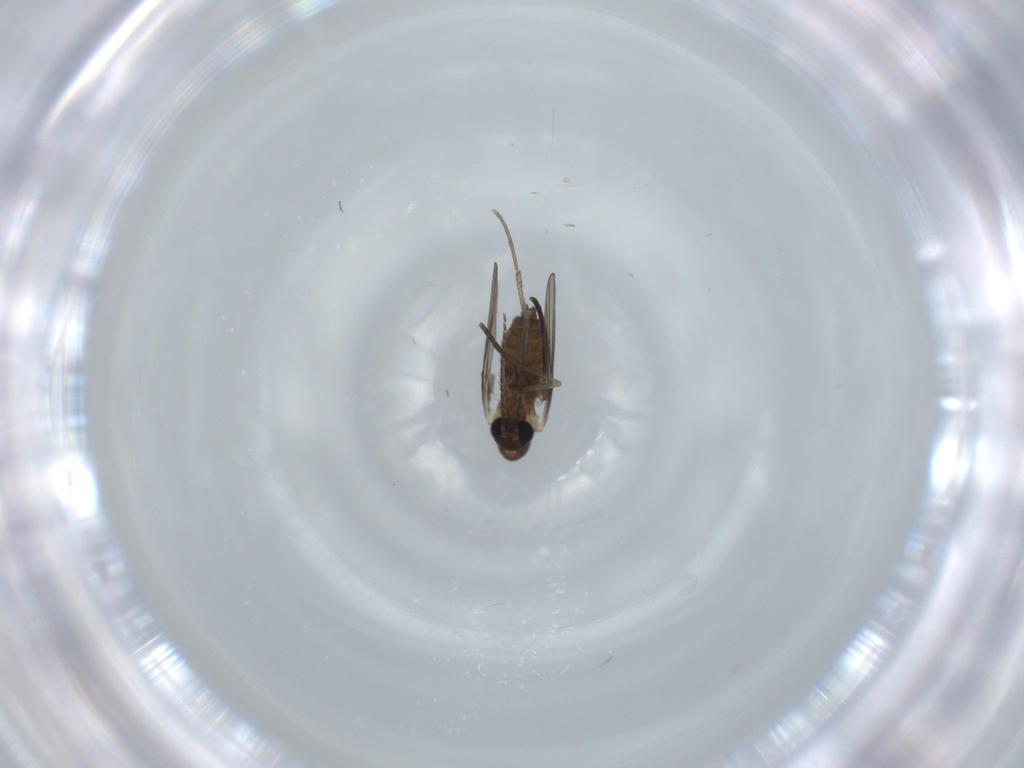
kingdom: Animalia
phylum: Arthropoda
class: Insecta
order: Diptera
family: Psychodidae
